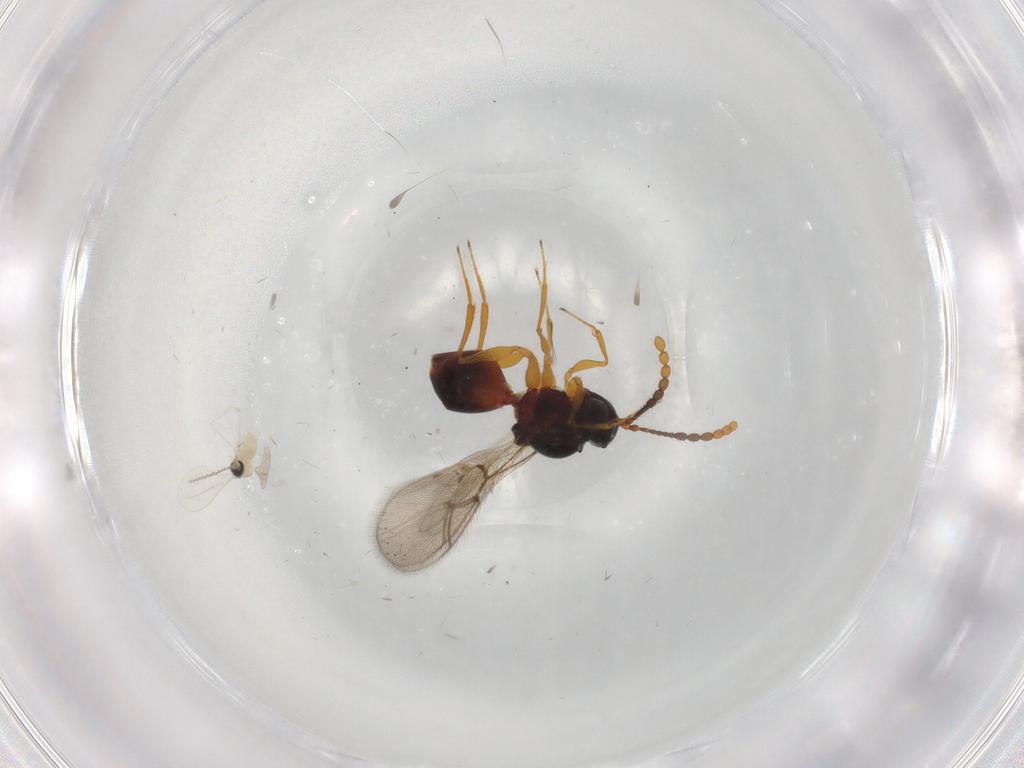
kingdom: Animalia
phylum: Arthropoda
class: Insecta
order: Hymenoptera
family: Figitidae
